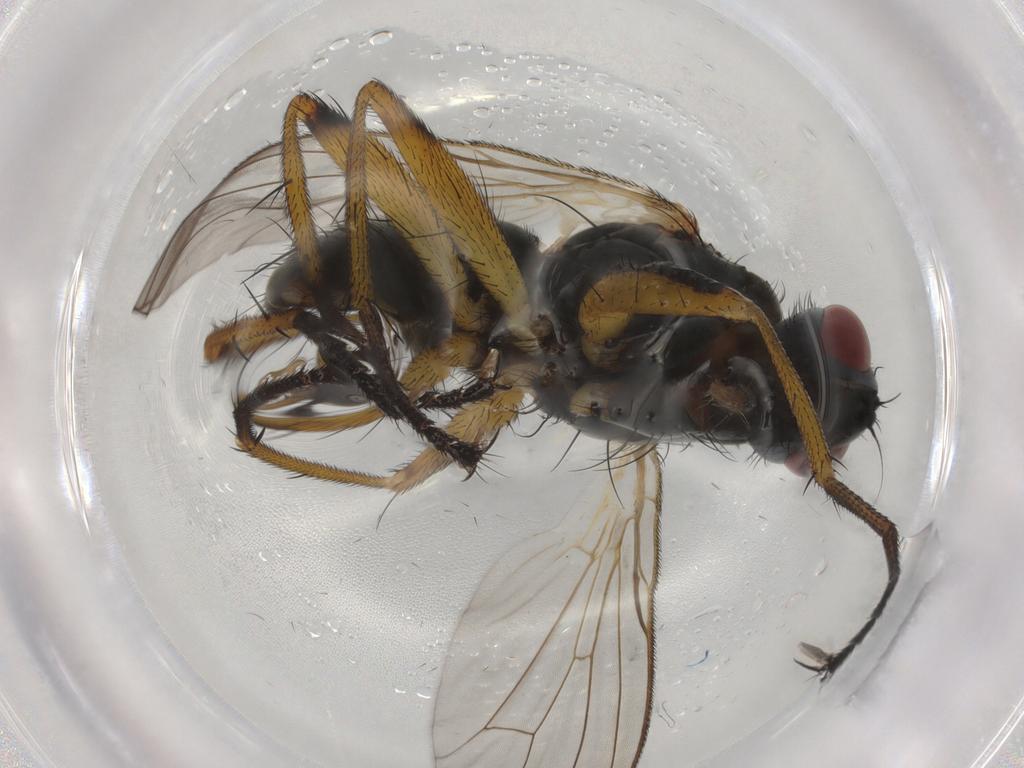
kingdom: Animalia
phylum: Arthropoda
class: Insecta
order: Diptera
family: Muscidae
